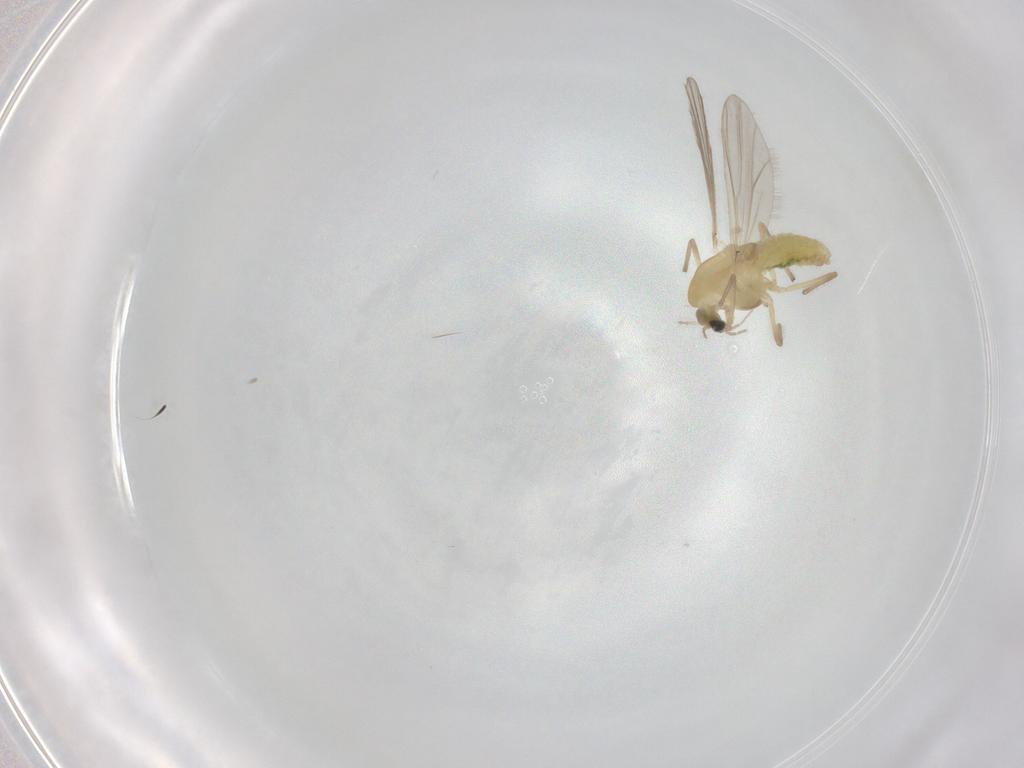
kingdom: Animalia
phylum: Arthropoda
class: Insecta
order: Diptera
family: Chironomidae
